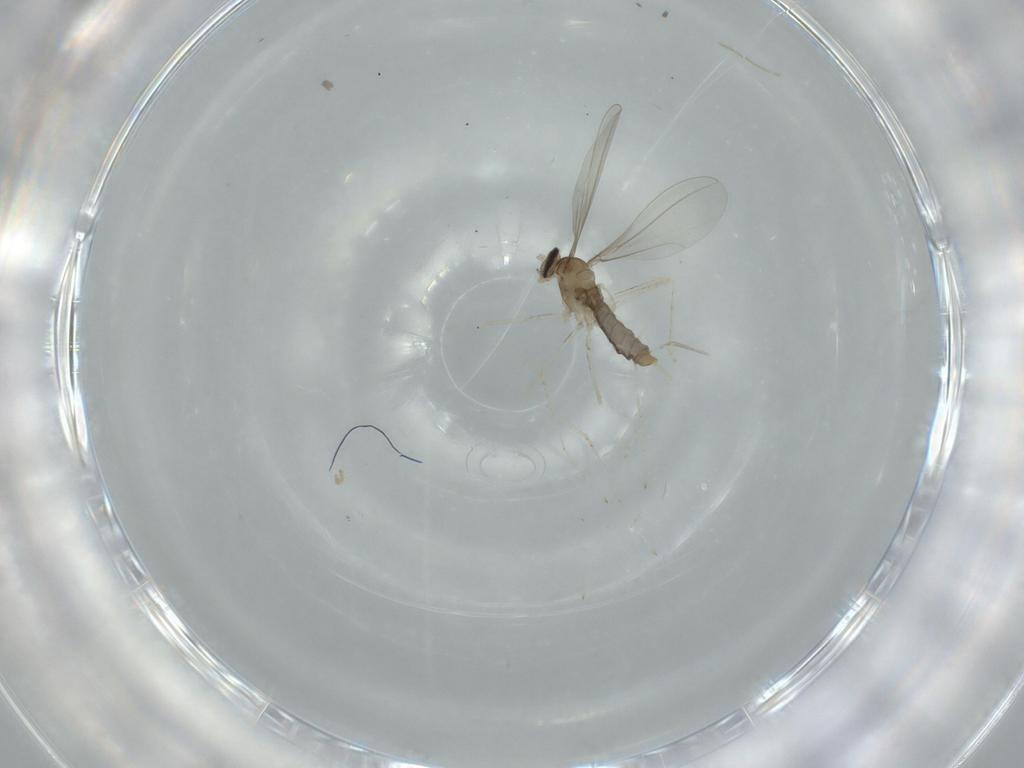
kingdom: Animalia
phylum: Arthropoda
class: Insecta
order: Diptera
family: Cecidomyiidae
